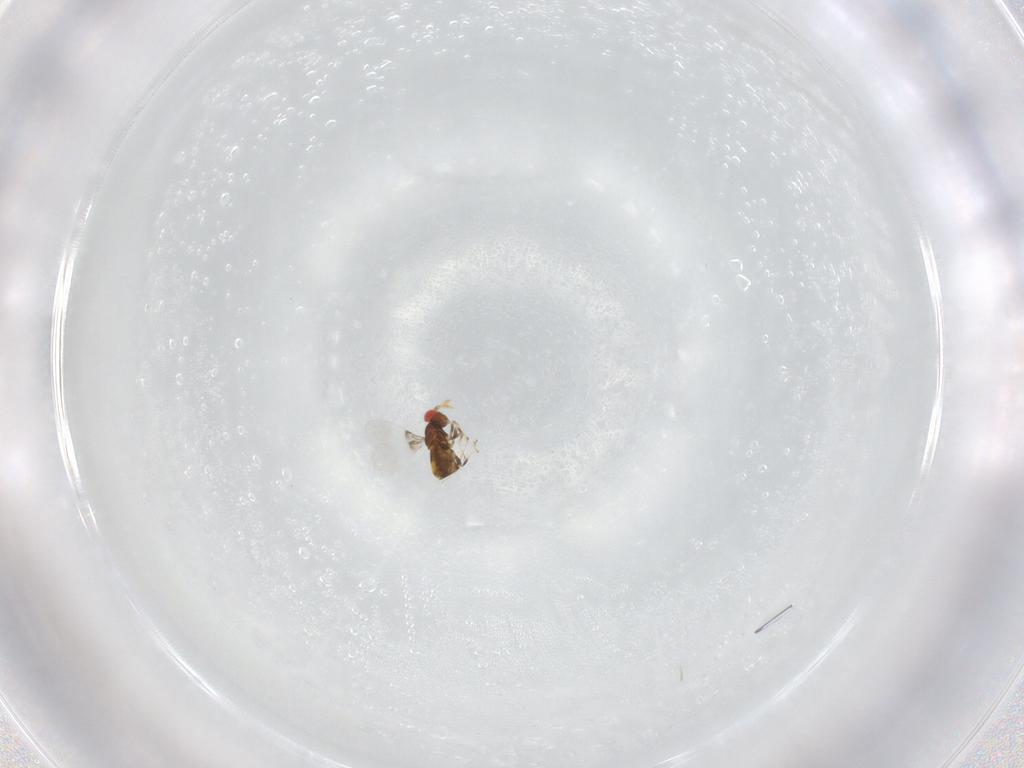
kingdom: Animalia
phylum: Arthropoda
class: Insecta
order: Hymenoptera
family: Trichogrammatidae
